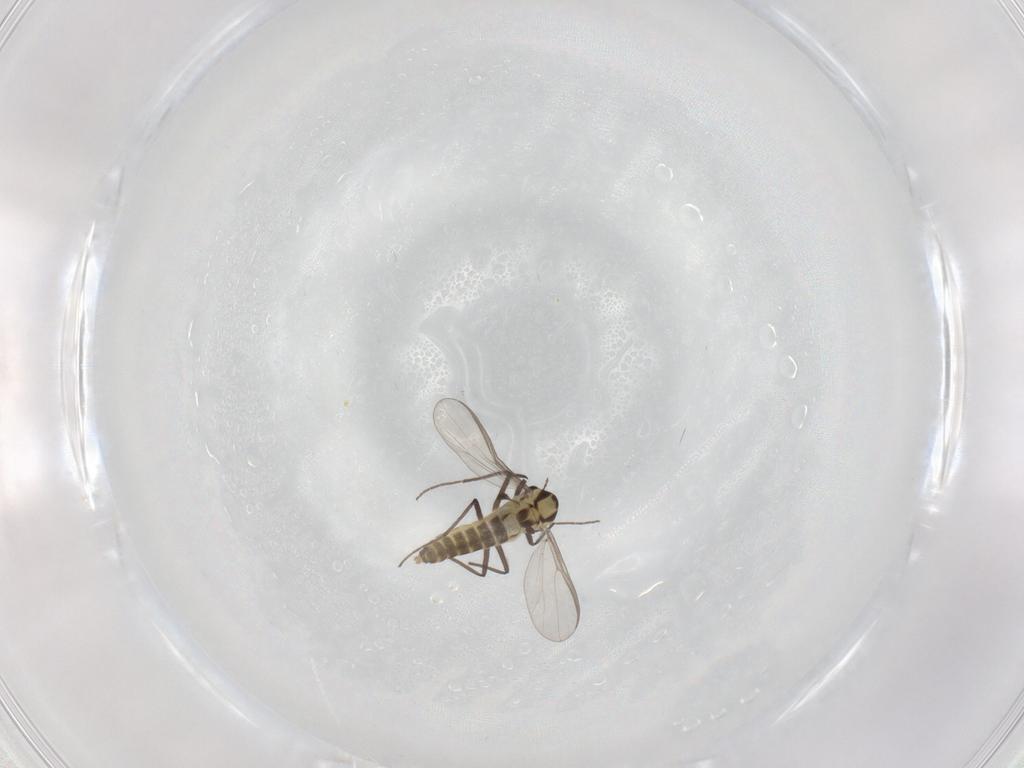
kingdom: Animalia
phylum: Arthropoda
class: Insecta
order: Diptera
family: Chironomidae
